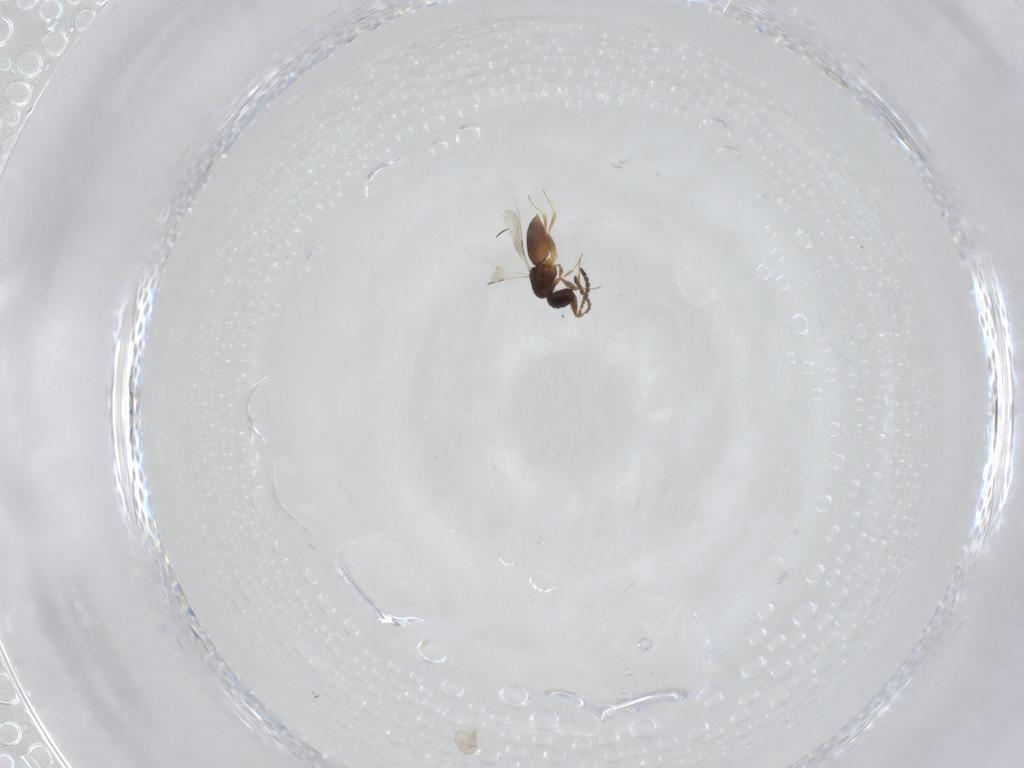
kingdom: Animalia
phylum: Arthropoda
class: Insecta
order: Hymenoptera
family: Ceraphronidae
